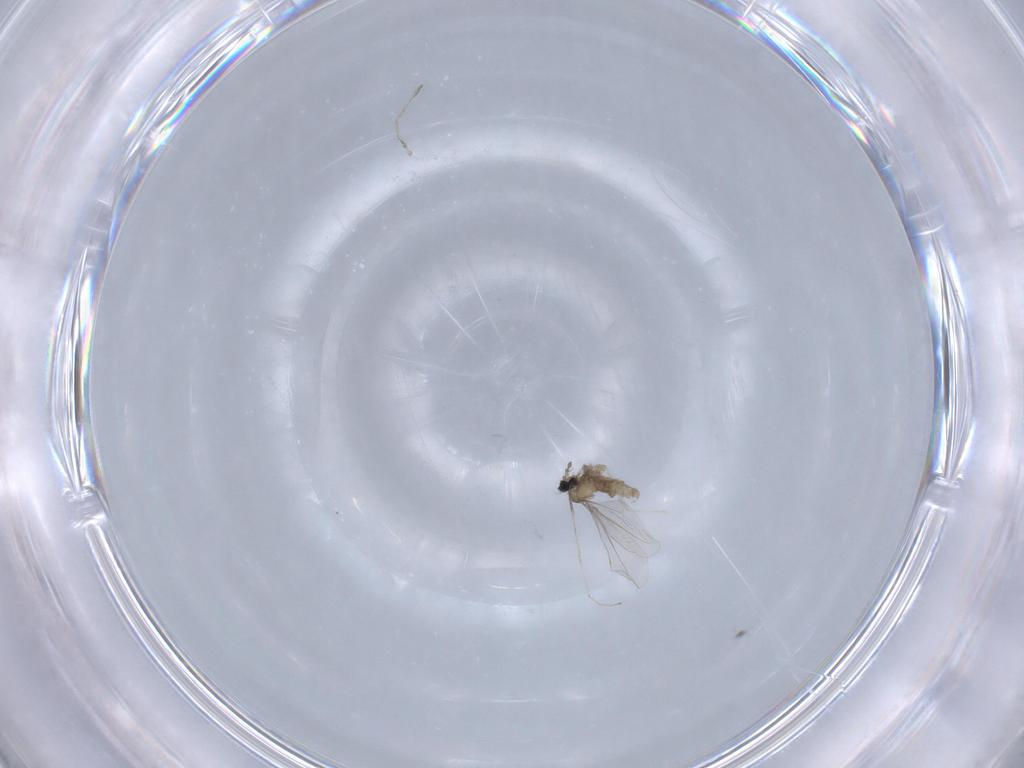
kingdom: Animalia
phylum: Arthropoda
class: Insecta
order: Diptera
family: Cecidomyiidae
